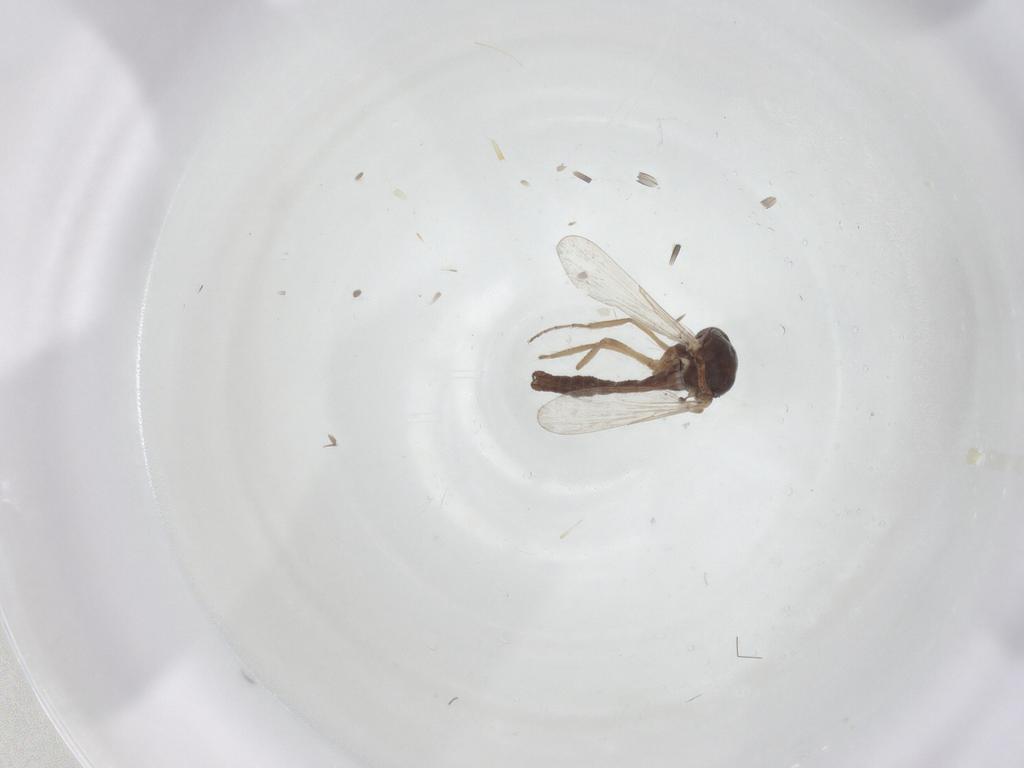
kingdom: Animalia
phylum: Arthropoda
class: Insecta
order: Diptera
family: Ceratopogonidae
